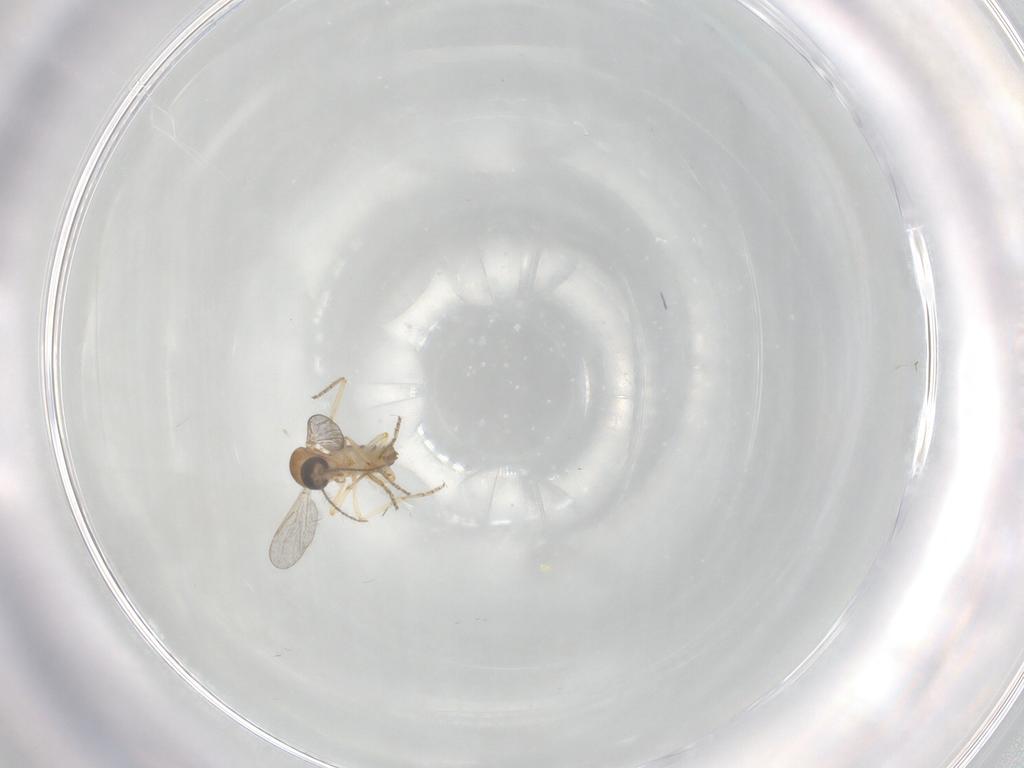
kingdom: Animalia
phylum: Arthropoda
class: Insecta
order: Diptera
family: Ceratopogonidae
